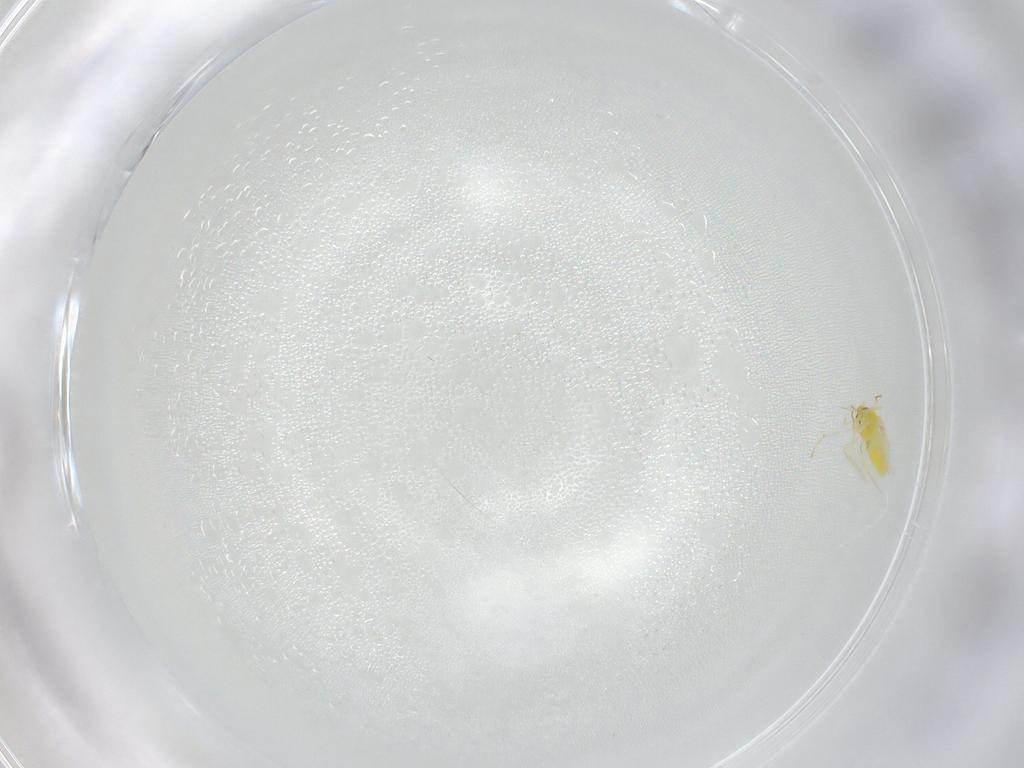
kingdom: Animalia
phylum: Arthropoda
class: Insecta
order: Hemiptera
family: Aleyrodidae
